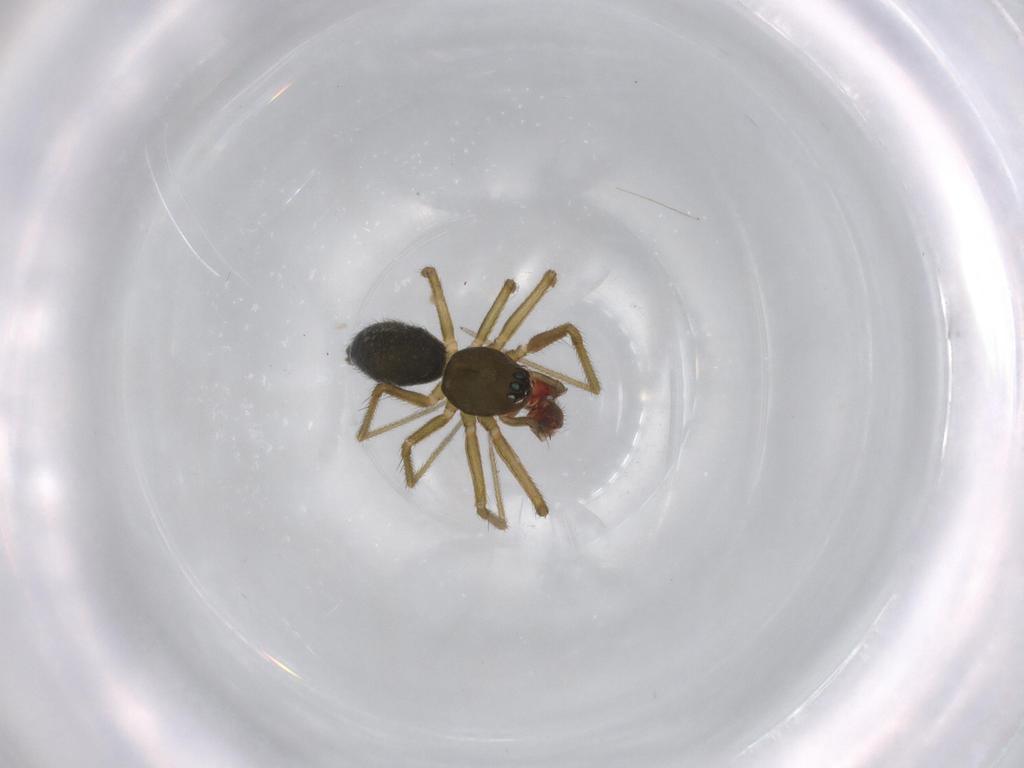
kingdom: Animalia
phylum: Arthropoda
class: Arachnida
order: Araneae
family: Linyphiidae
